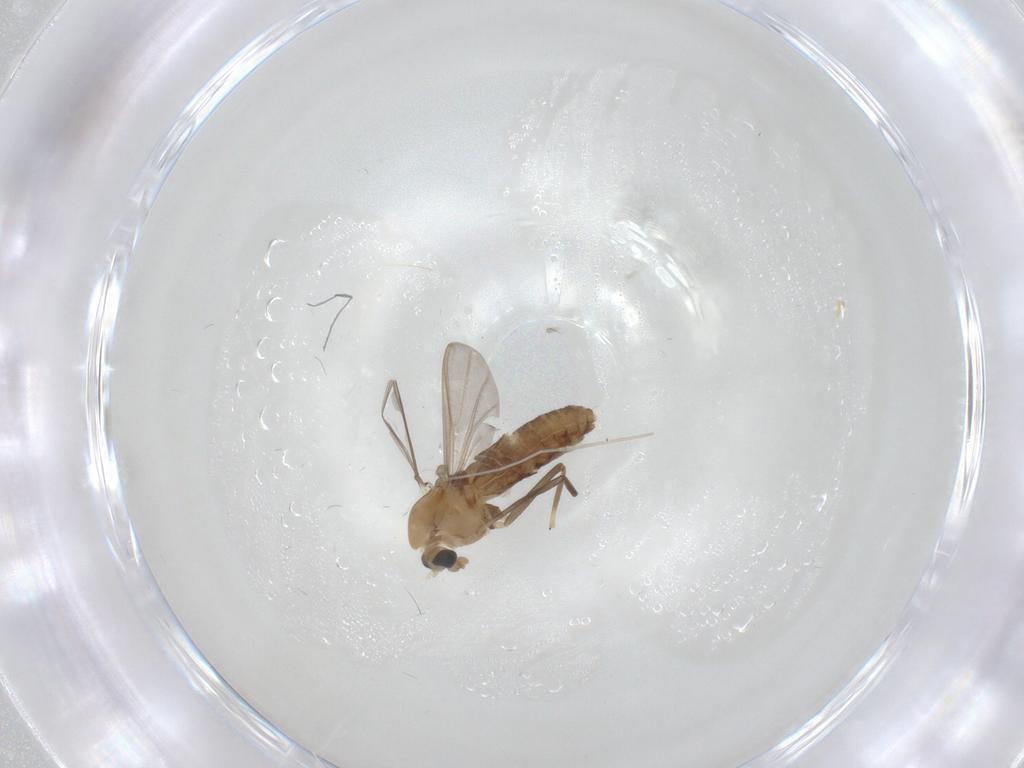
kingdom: Animalia
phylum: Arthropoda
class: Insecta
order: Diptera
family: Chironomidae
